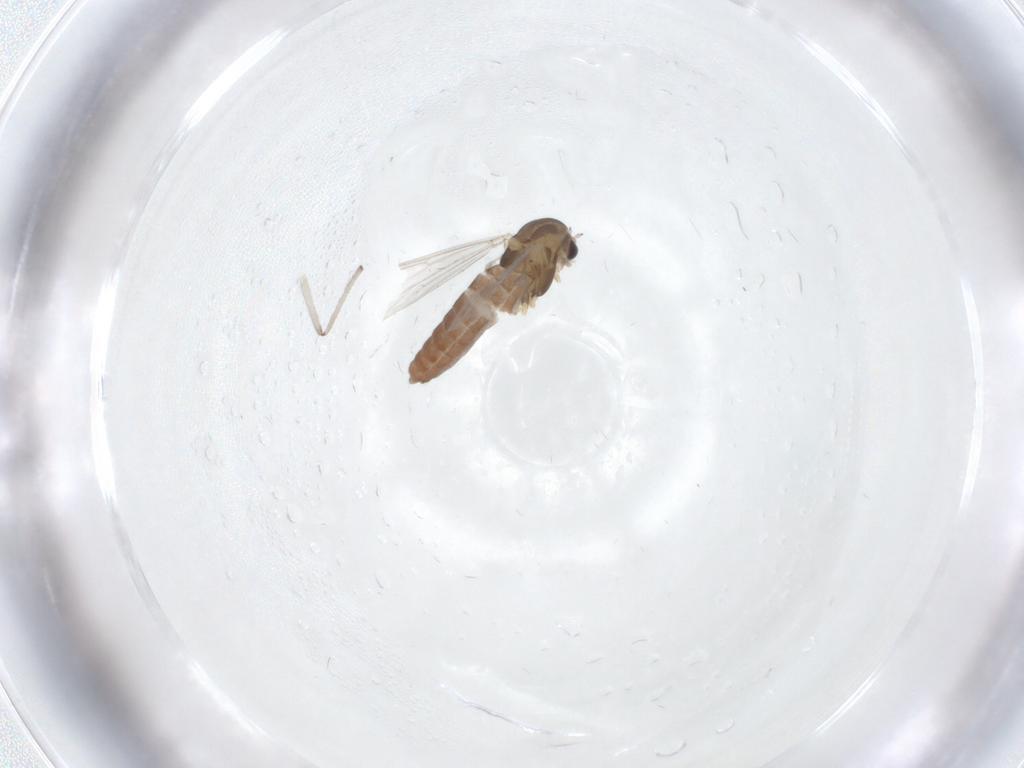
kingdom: Animalia
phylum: Arthropoda
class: Insecta
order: Diptera
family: Chironomidae
